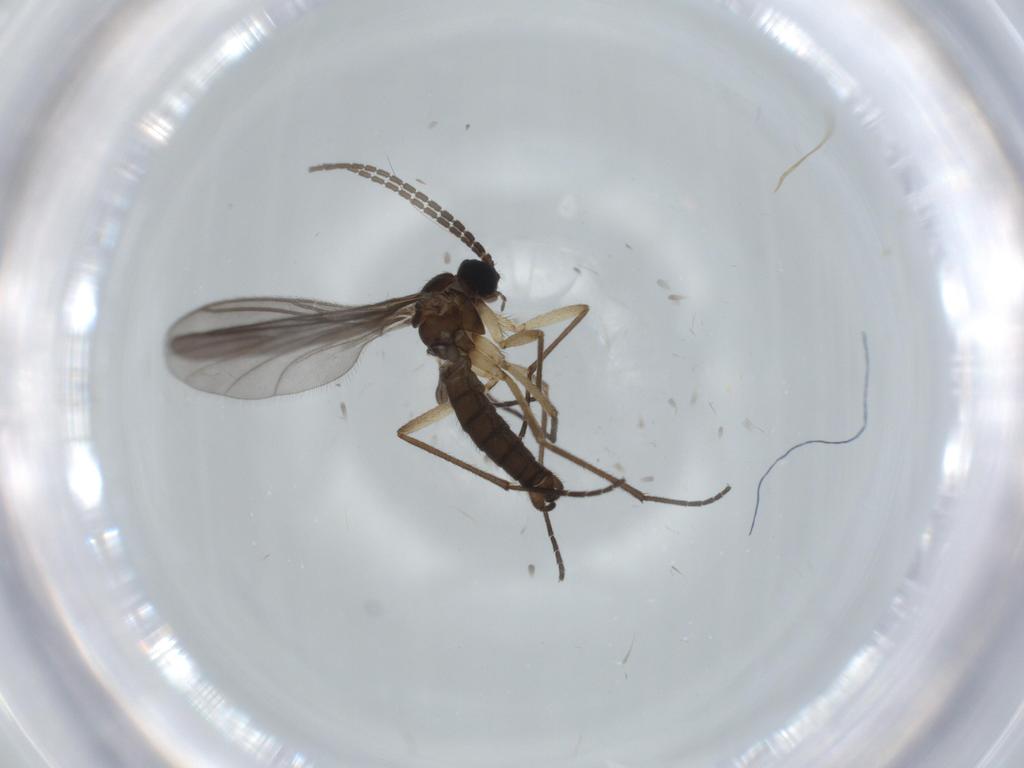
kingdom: Animalia
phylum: Arthropoda
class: Insecta
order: Diptera
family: Sciaridae
